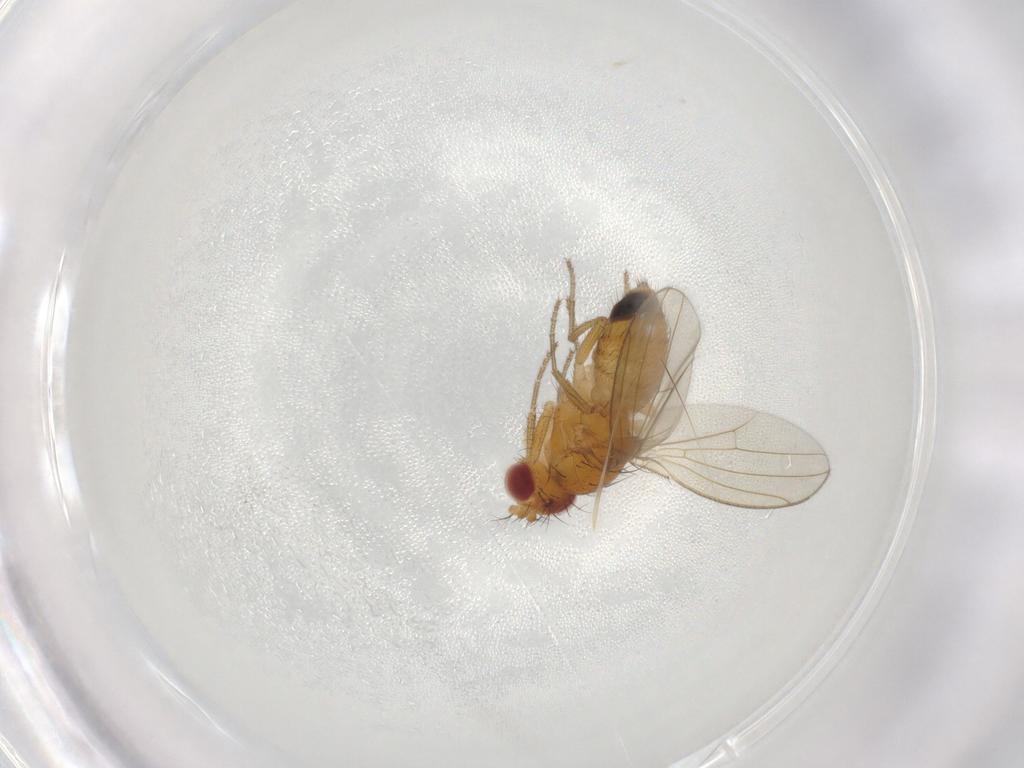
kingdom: Animalia
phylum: Arthropoda
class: Insecta
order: Diptera
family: Drosophilidae
